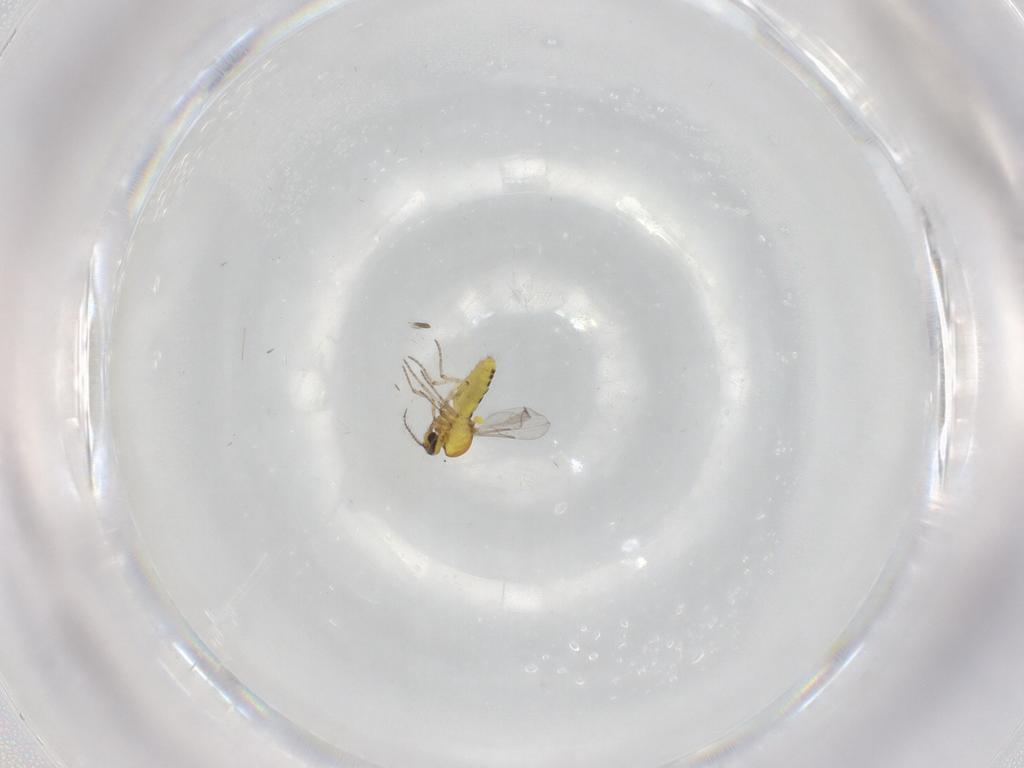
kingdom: Animalia
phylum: Arthropoda
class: Insecta
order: Diptera
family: Ceratopogonidae
